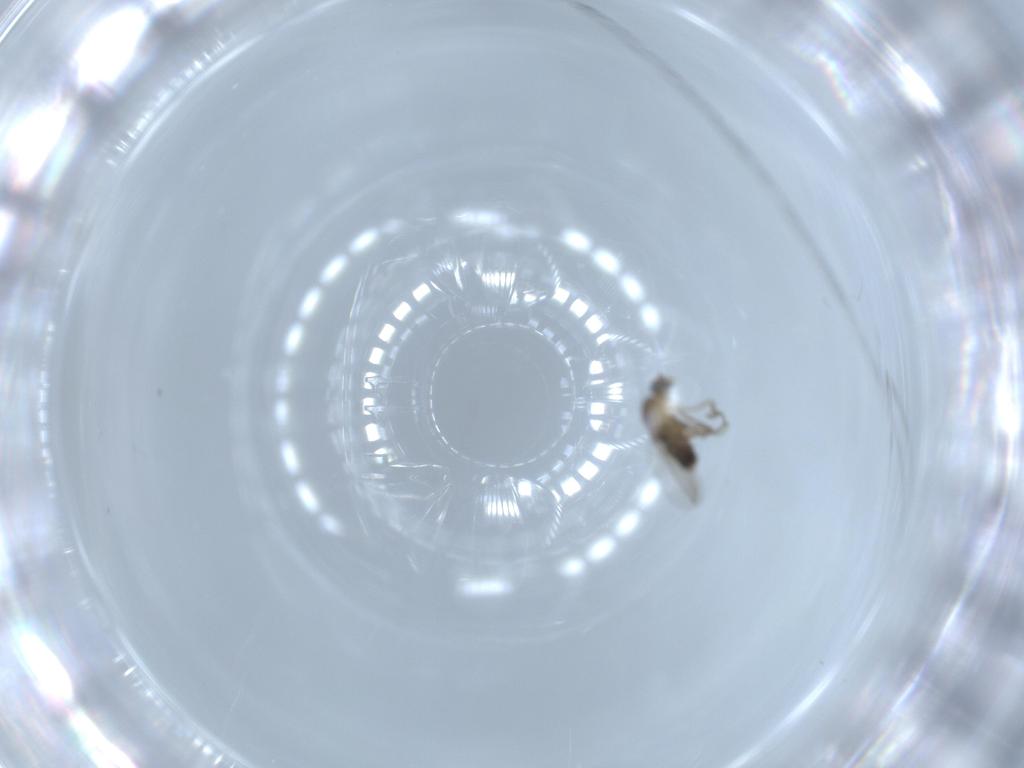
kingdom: Animalia
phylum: Arthropoda
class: Insecta
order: Diptera
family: Phoridae
